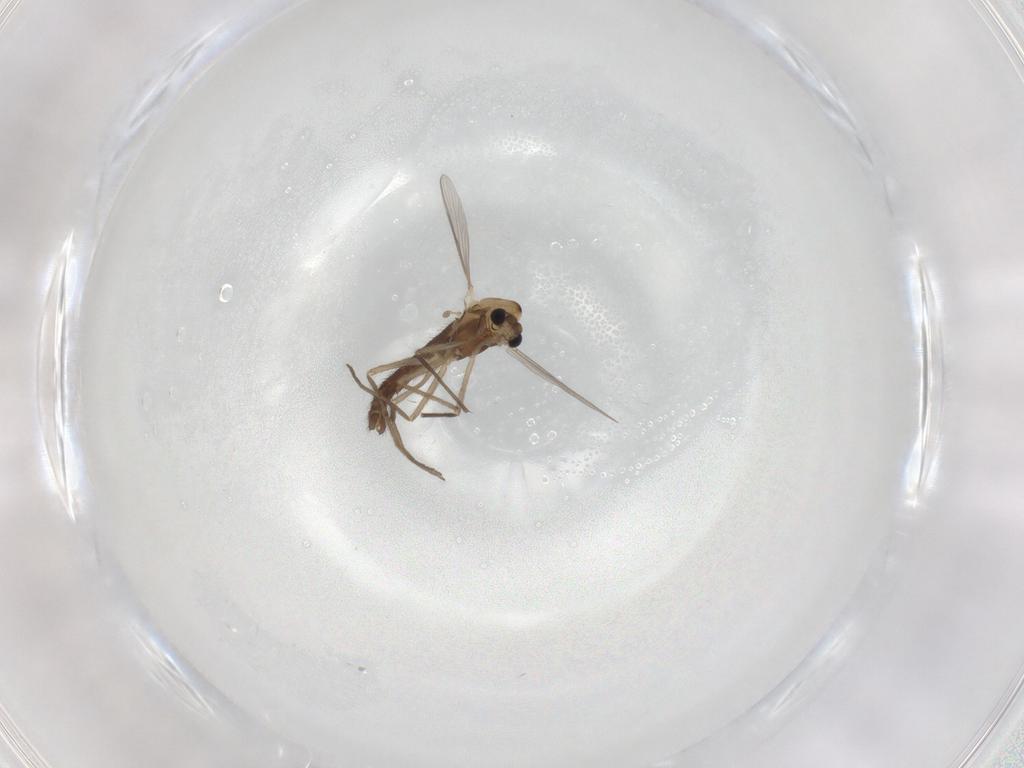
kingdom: Animalia
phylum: Arthropoda
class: Insecta
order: Diptera
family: Chironomidae
